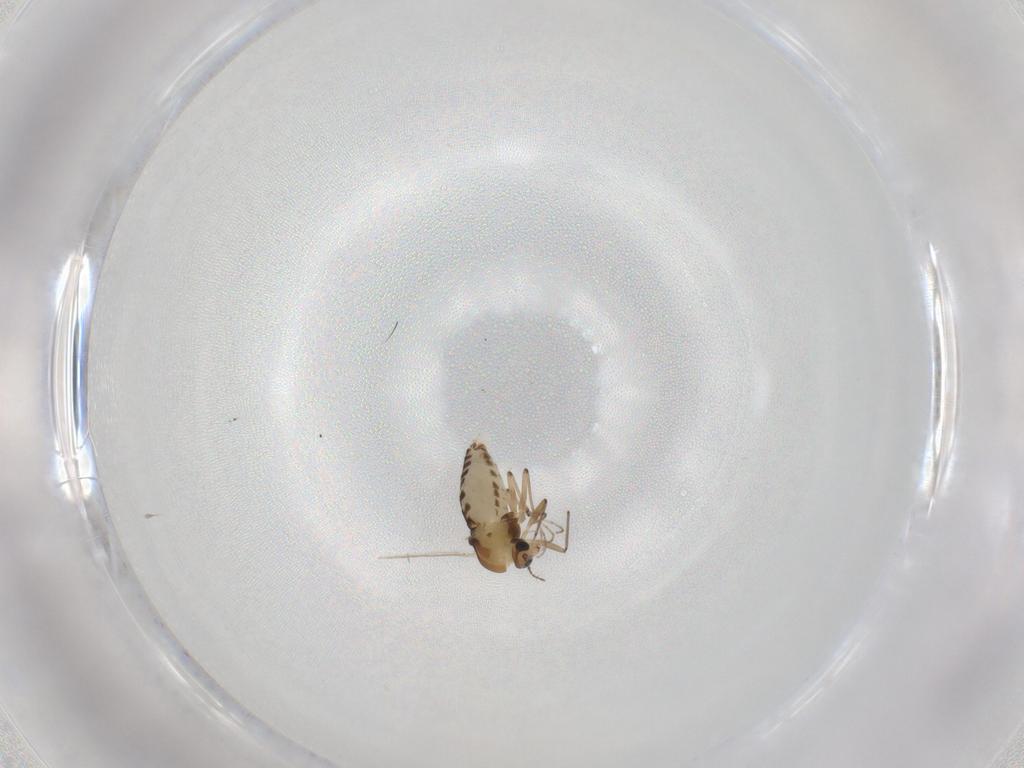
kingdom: Animalia
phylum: Arthropoda
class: Insecta
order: Diptera
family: Chironomidae
